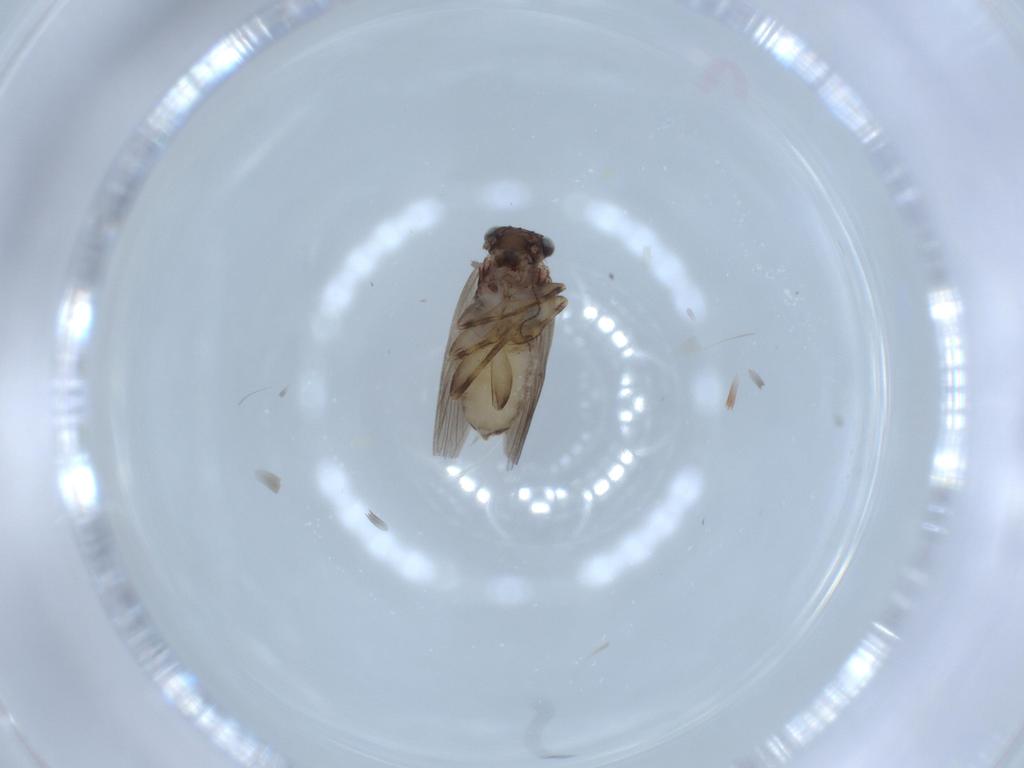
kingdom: Animalia
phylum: Arthropoda
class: Insecta
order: Psocodea
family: Lepidopsocidae
